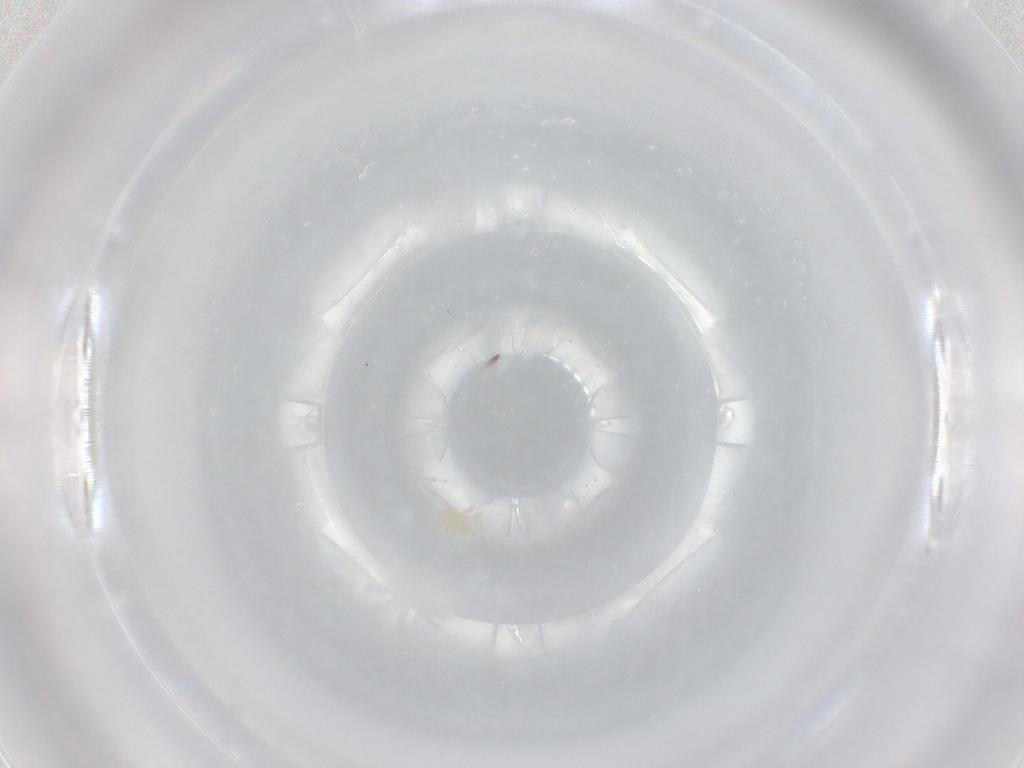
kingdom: Animalia
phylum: Arthropoda
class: Arachnida
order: Trombidiformes
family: Anystidae
